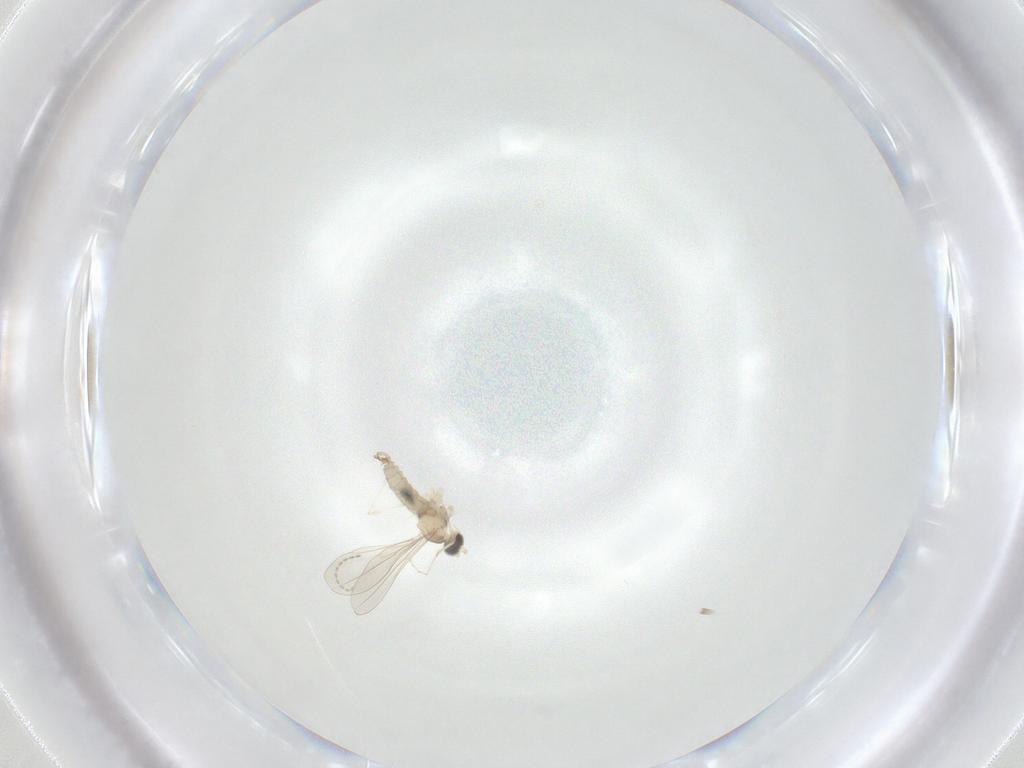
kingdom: Animalia
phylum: Arthropoda
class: Insecta
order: Diptera
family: Cecidomyiidae
